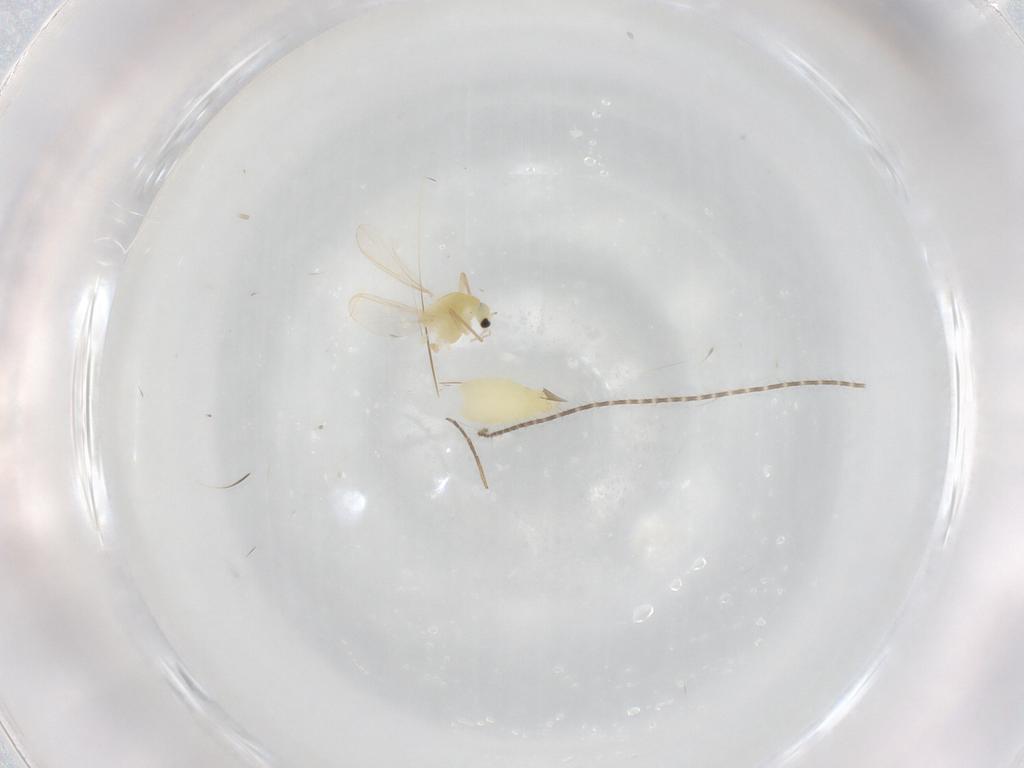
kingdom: Animalia
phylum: Arthropoda
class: Insecta
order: Diptera
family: Chironomidae
